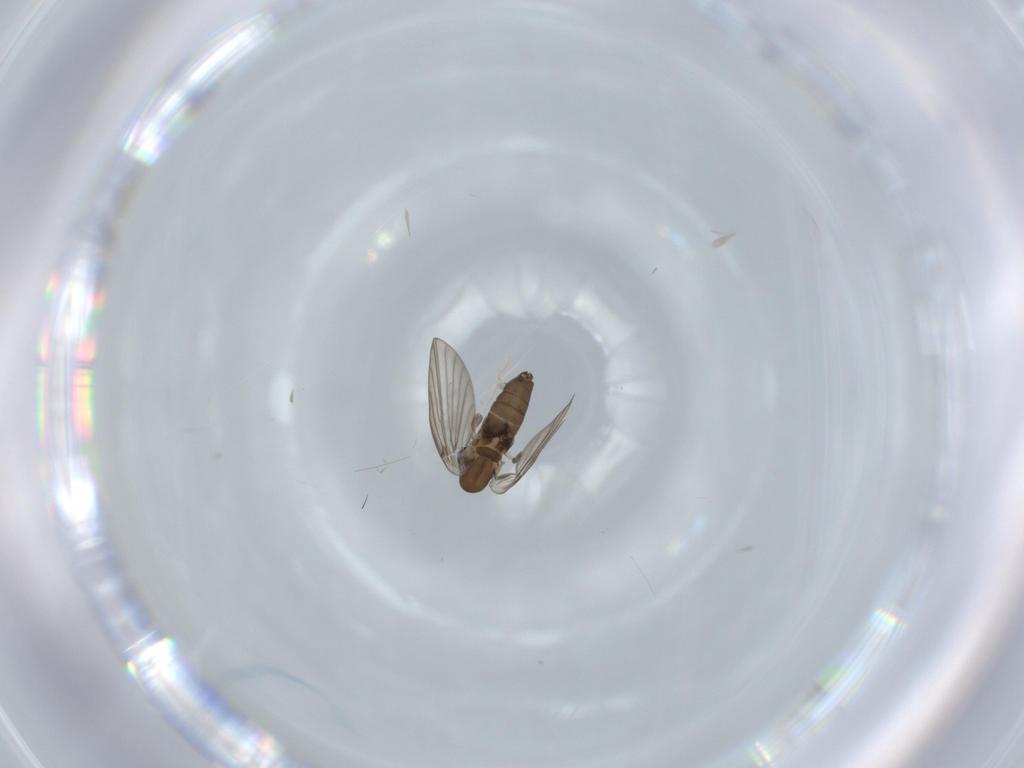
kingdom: Animalia
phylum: Arthropoda
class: Insecta
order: Diptera
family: Psychodidae
